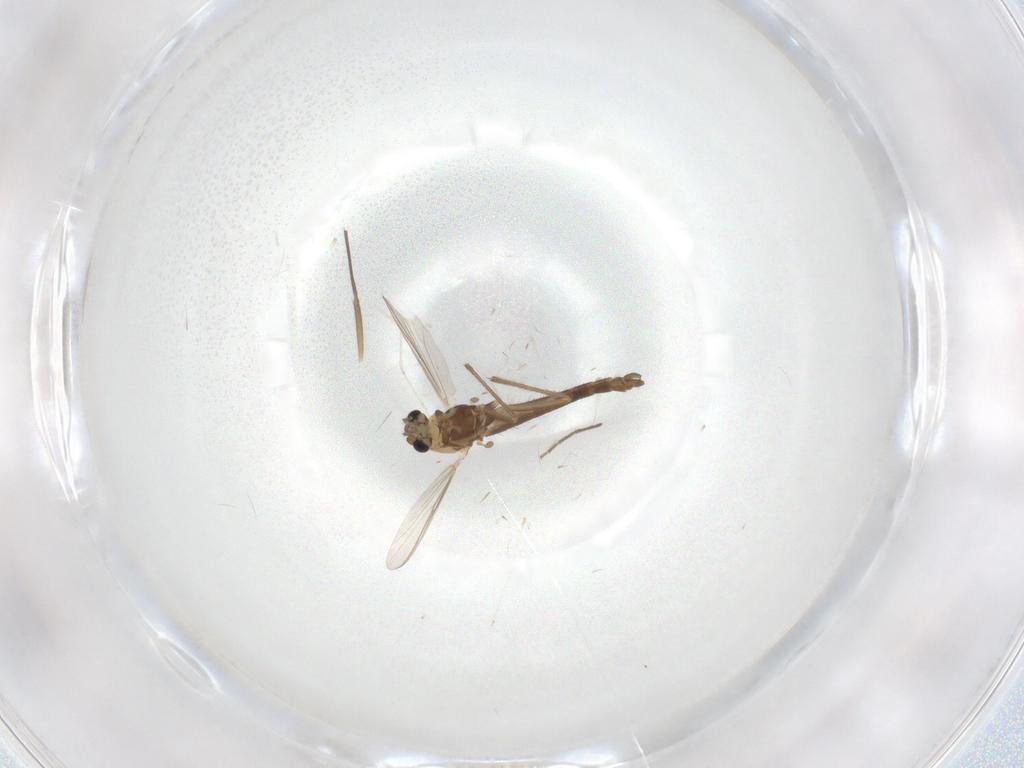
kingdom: Animalia
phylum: Arthropoda
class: Insecta
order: Diptera
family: Chironomidae
